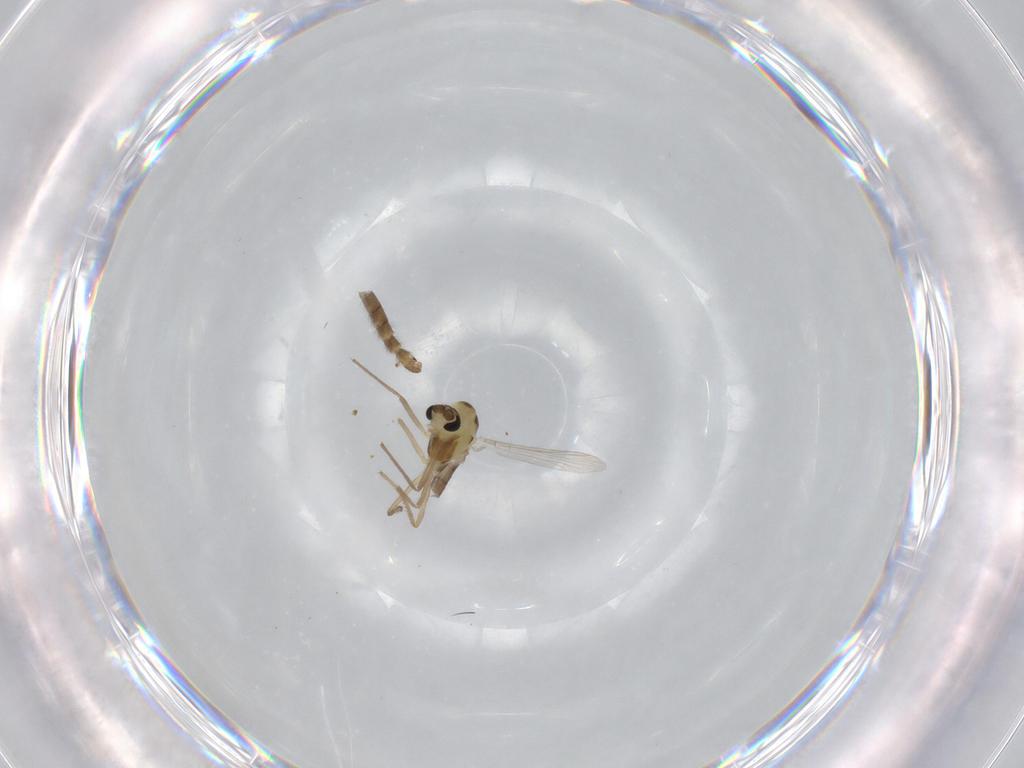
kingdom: Animalia
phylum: Arthropoda
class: Insecta
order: Diptera
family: Chironomidae
